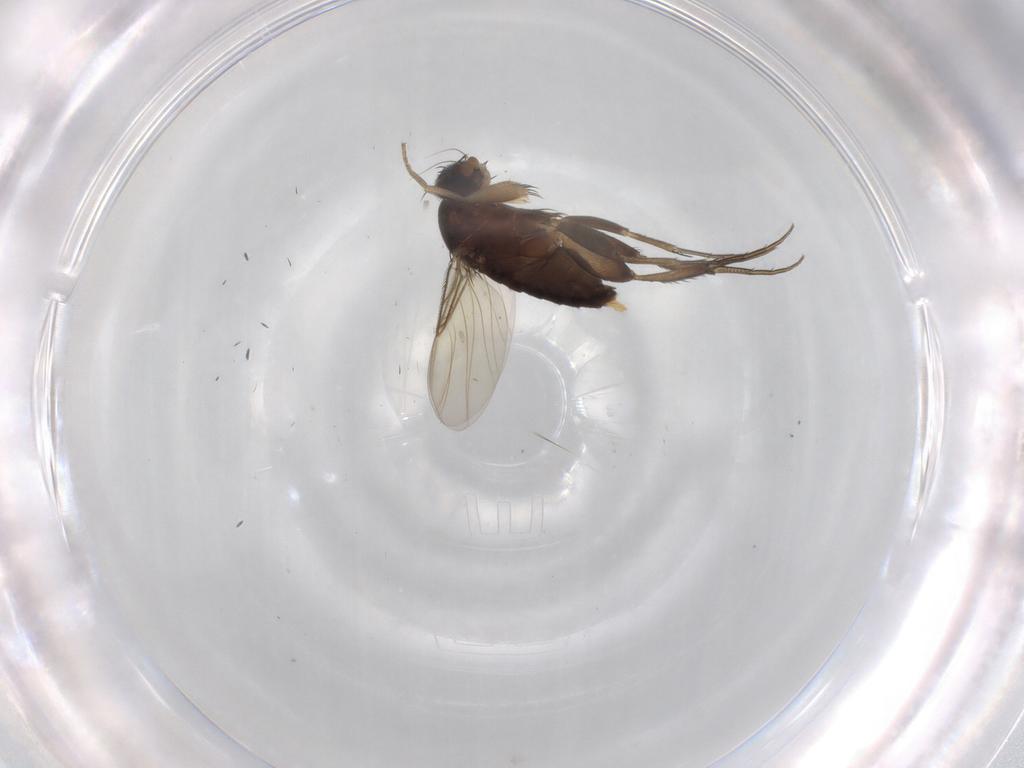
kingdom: Animalia
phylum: Arthropoda
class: Insecta
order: Diptera
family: Phoridae
